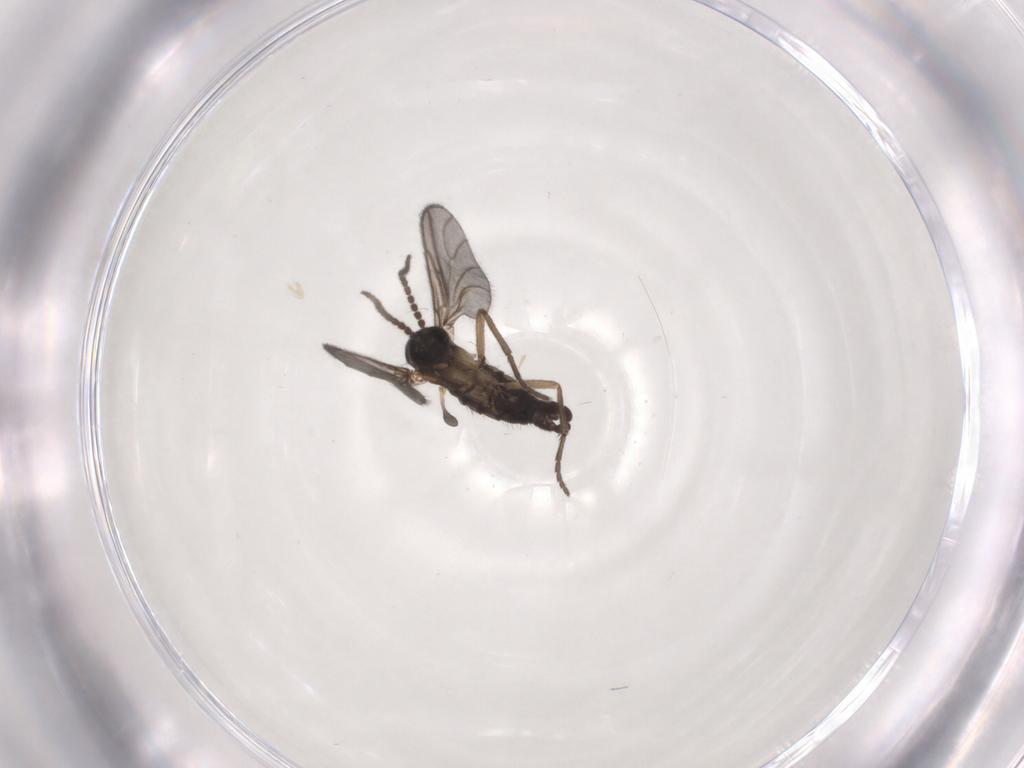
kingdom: Animalia
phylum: Arthropoda
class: Insecta
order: Diptera
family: Sciaridae
